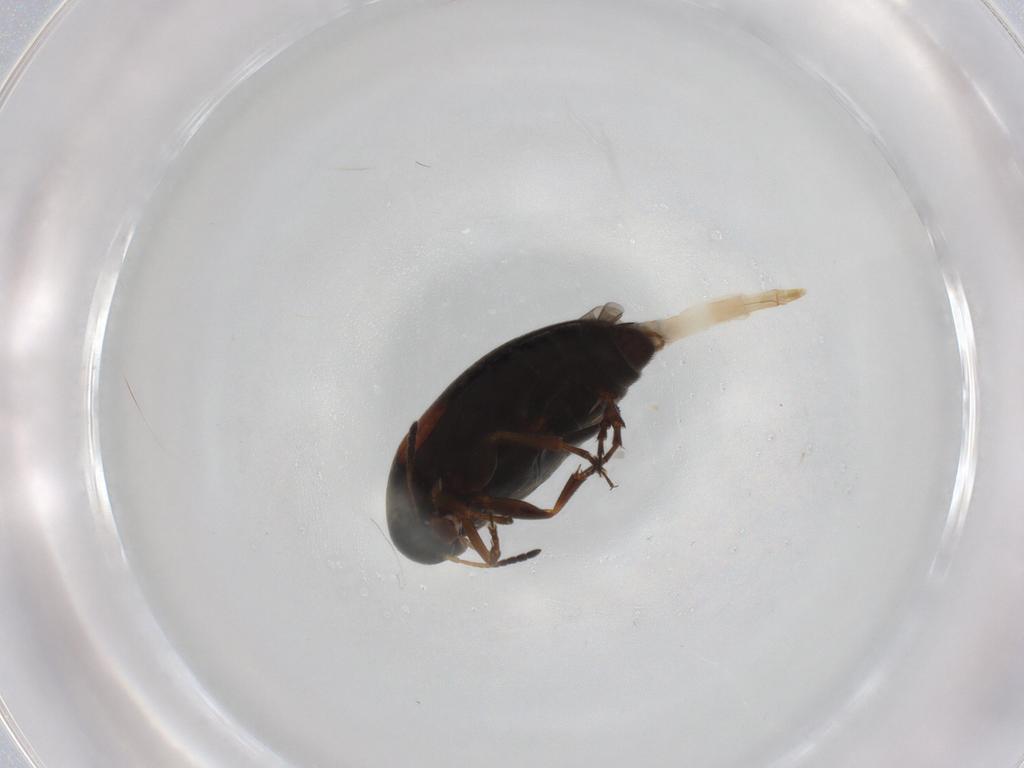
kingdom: Animalia
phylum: Arthropoda
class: Insecta
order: Coleoptera
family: Scraptiidae
